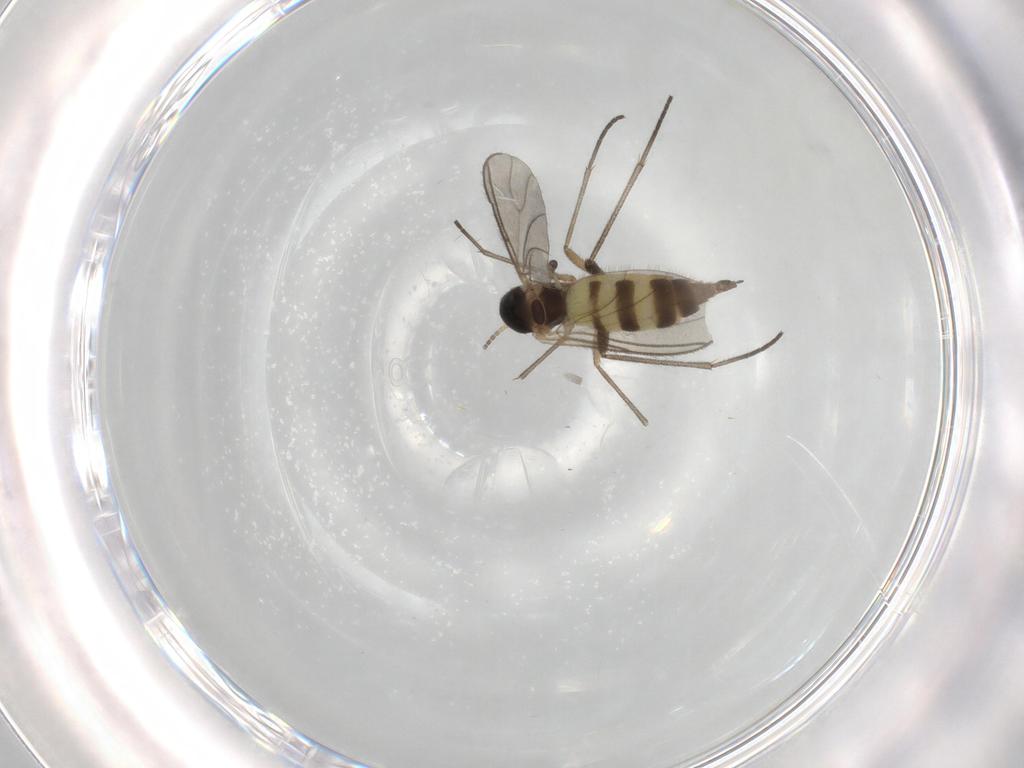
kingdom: Animalia
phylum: Arthropoda
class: Insecta
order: Diptera
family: Sciaridae
